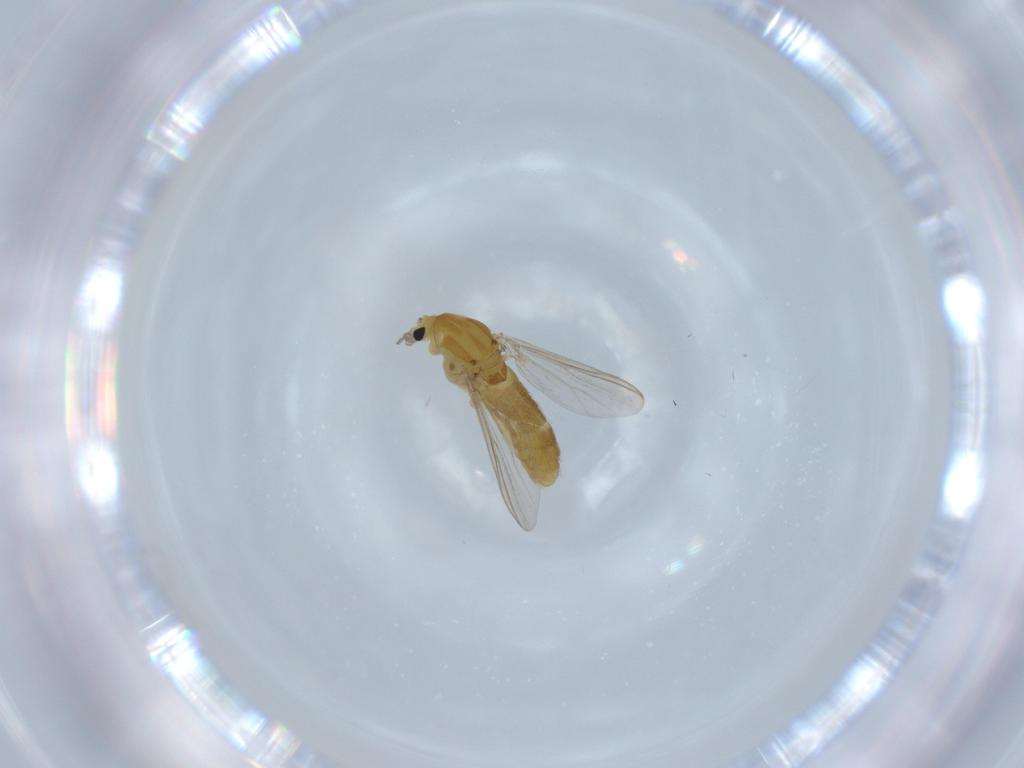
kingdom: Animalia
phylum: Arthropoda
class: Insecta
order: Diptera
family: Chironomidae
